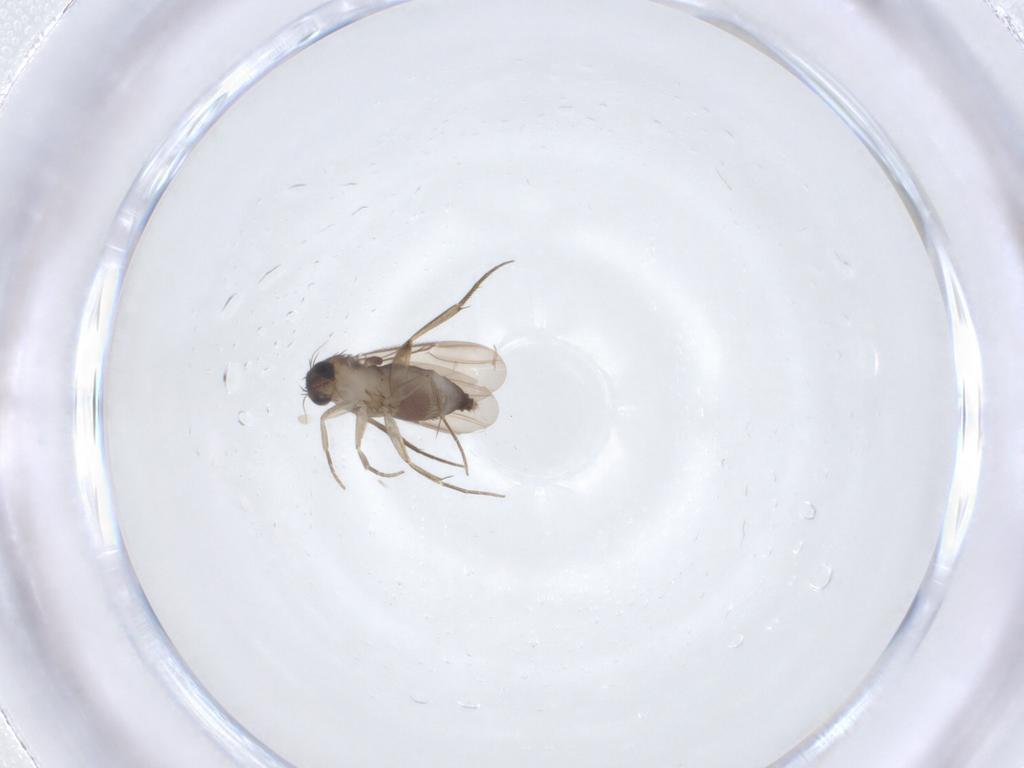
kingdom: Animalia
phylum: Arthropoda
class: Insecta
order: Diptera
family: Phoridae
